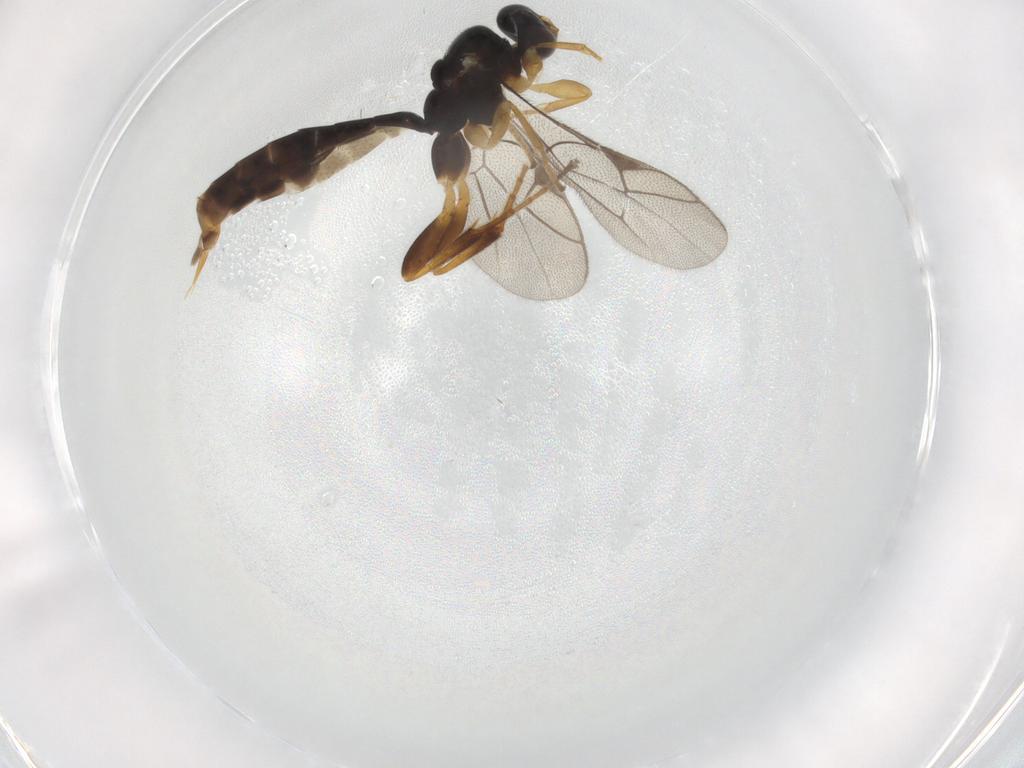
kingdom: Animalia
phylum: Arthropoda
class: Insecta
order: Hymenoptera
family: Ichneumonidae
